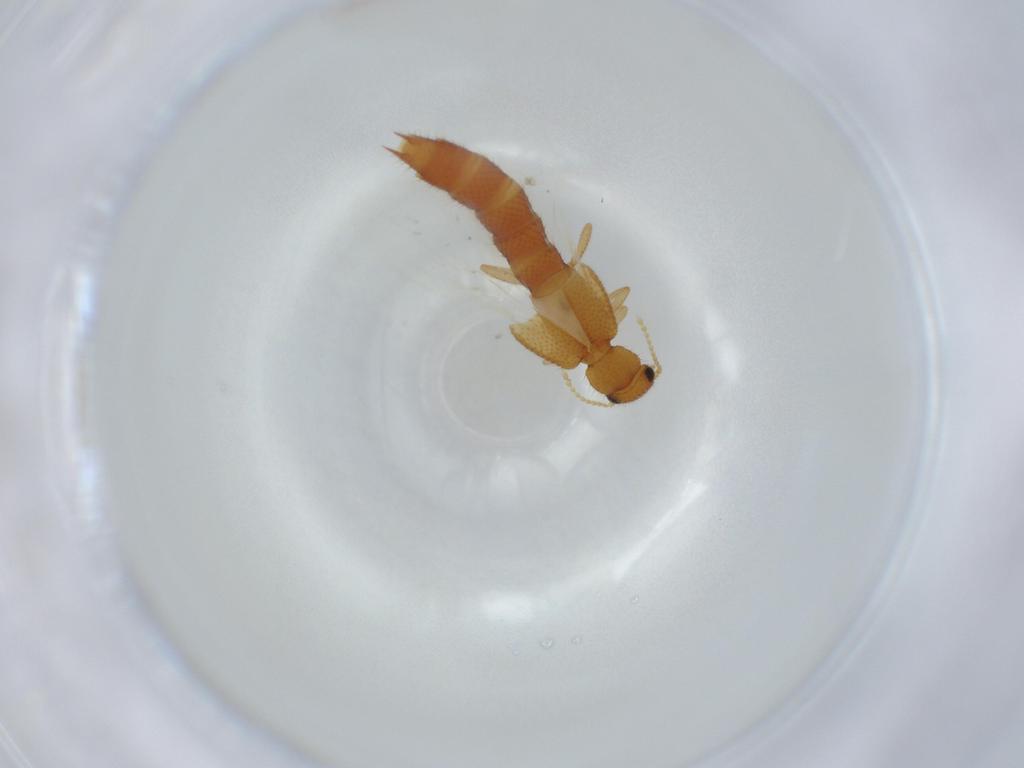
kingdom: Animalia
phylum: Arthropoda
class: Insecta
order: Coleoptera
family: Staphylinidae
